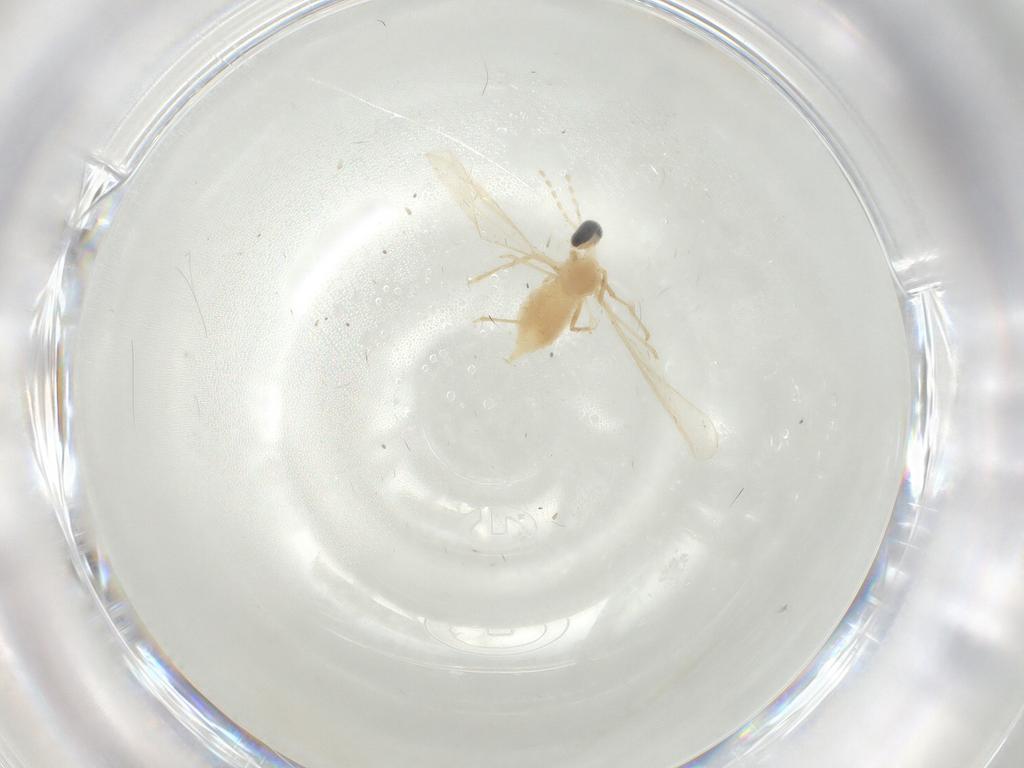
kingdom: Animalia
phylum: Arthropoda
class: Insecta
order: Diptera
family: Cecidomyiidae
